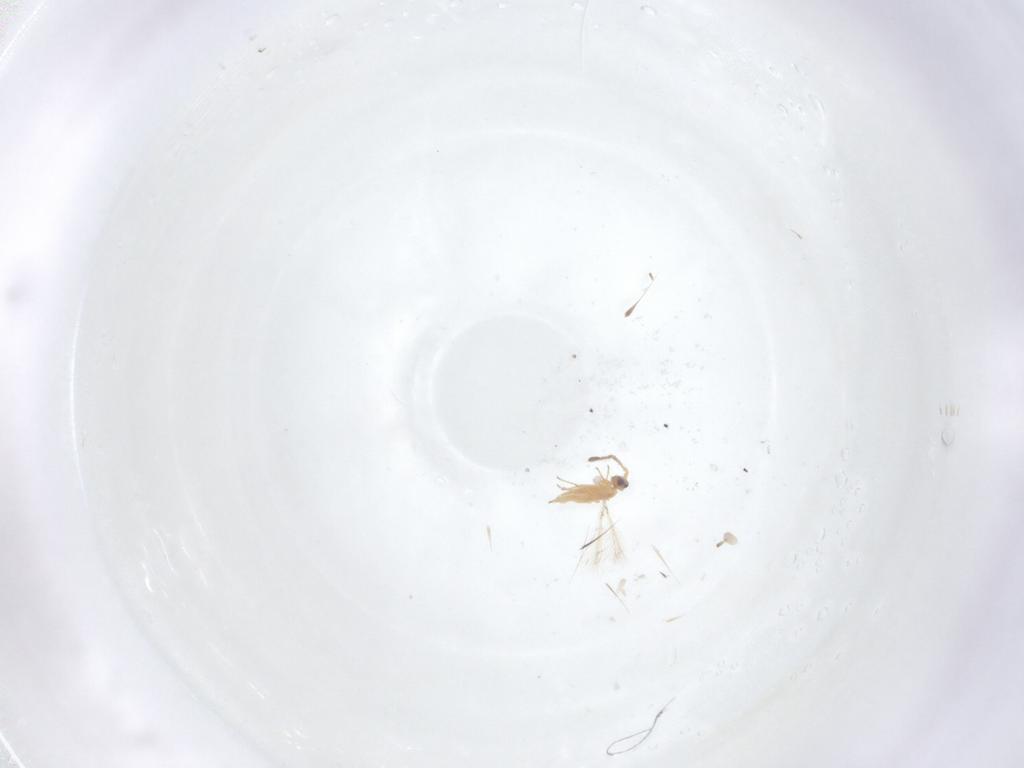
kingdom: Animalia
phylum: Arthropoda
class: Insecta
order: Hymenoptera
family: Mymaridae
